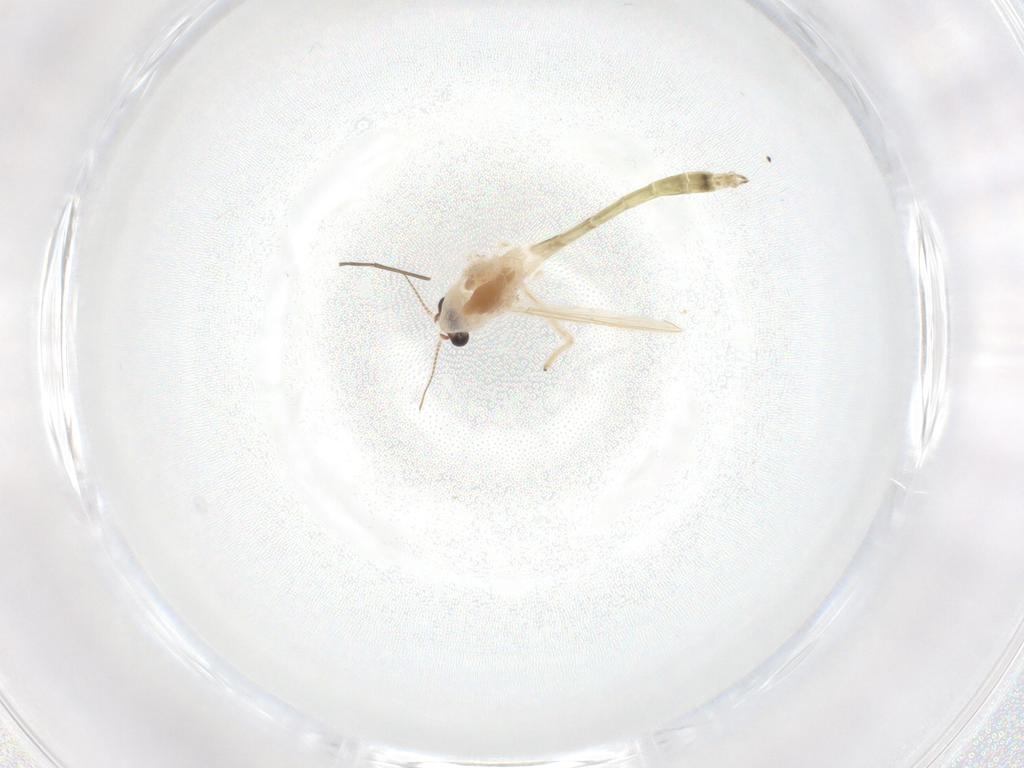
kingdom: Animalia
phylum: Arthropoda
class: Insecta
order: Diptera
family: Chironomidae
